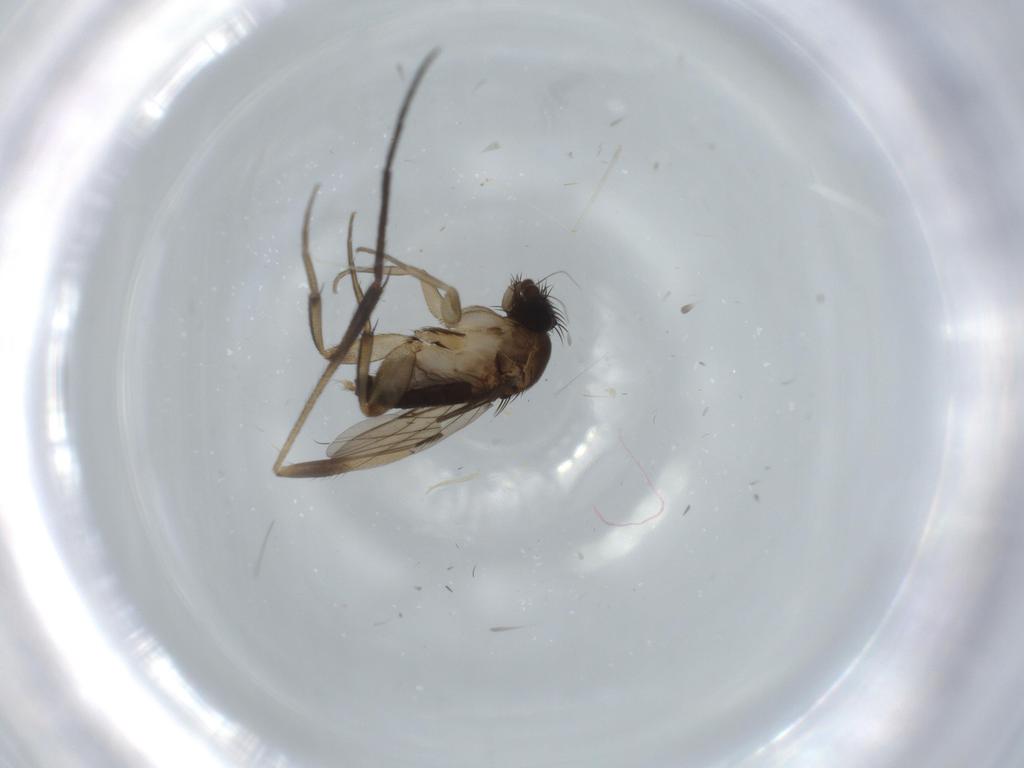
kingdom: Animalia
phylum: Arthropoda
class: Insecta
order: Diptera
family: Phoridae
